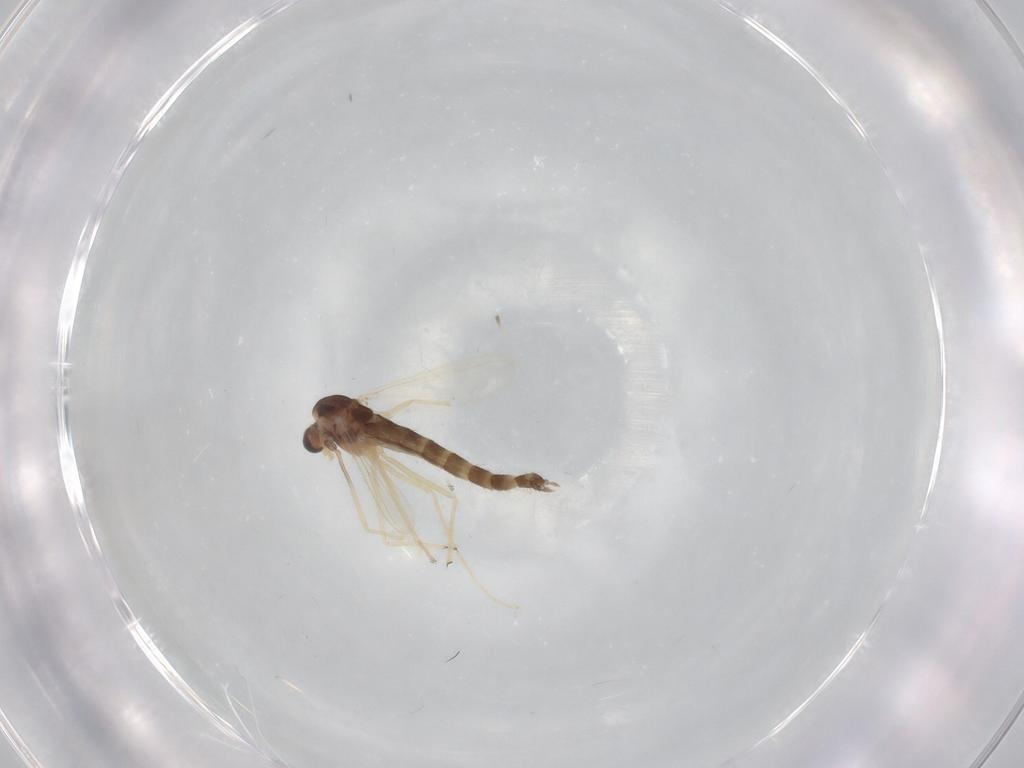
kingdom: Animalia
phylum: Arthropoda
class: Insecta
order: Diptera
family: Chironomidae
